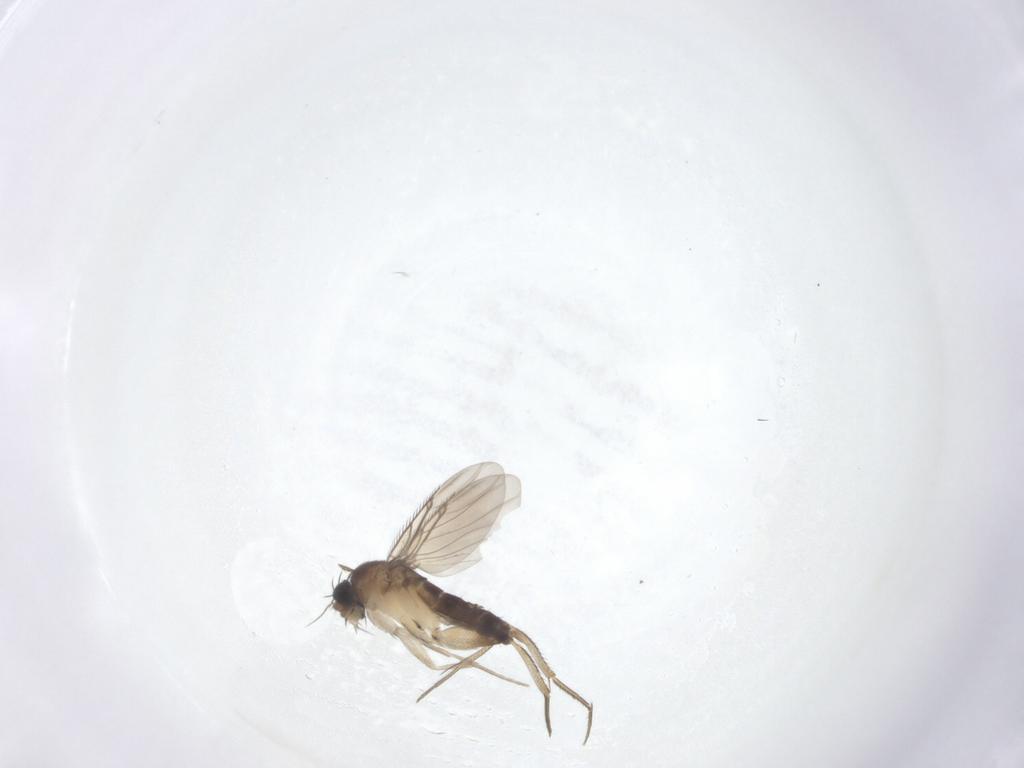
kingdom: Animalia
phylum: Arthropoda
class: Insecta
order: Diptera
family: Phoridae
